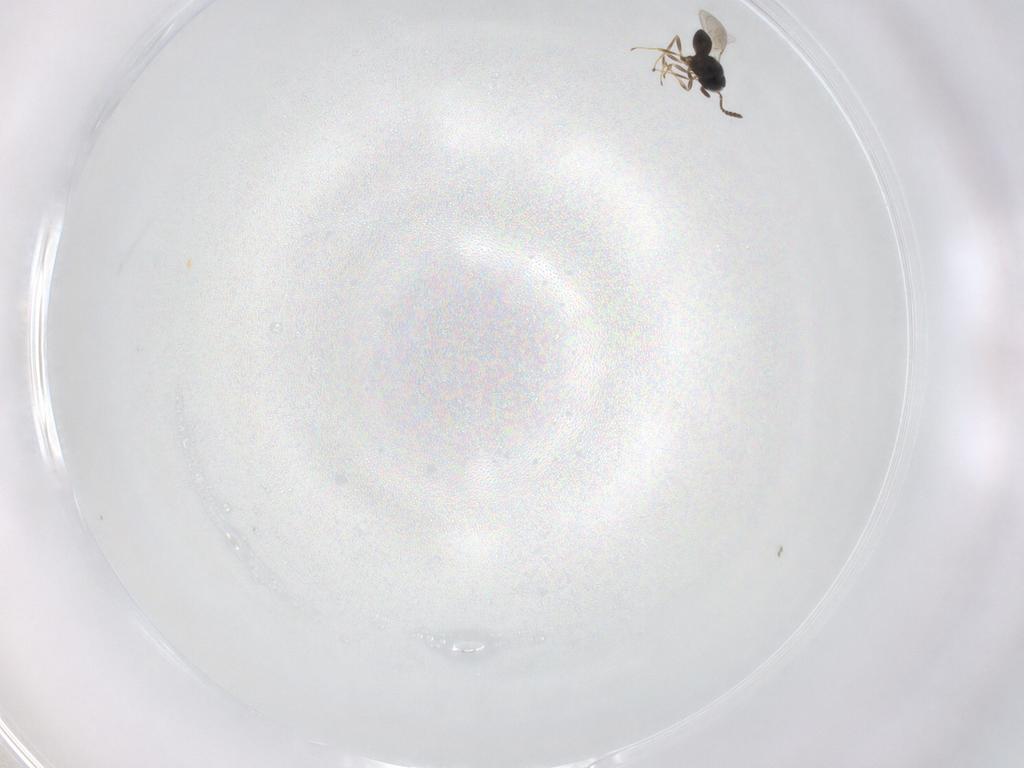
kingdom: Animalia
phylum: Arthropoda
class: Insecta
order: Hymenoptera
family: Scelionidae
